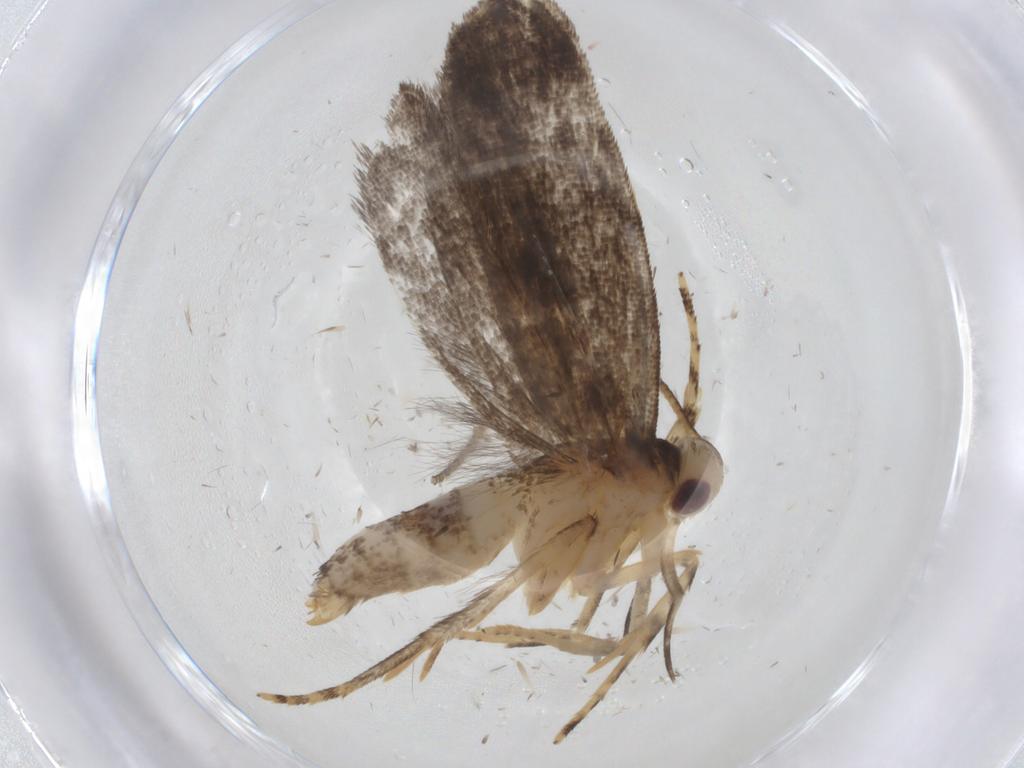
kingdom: Animalia
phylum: Arthropoda
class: Insecta
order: Lepidoptera
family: Gelechiidae
